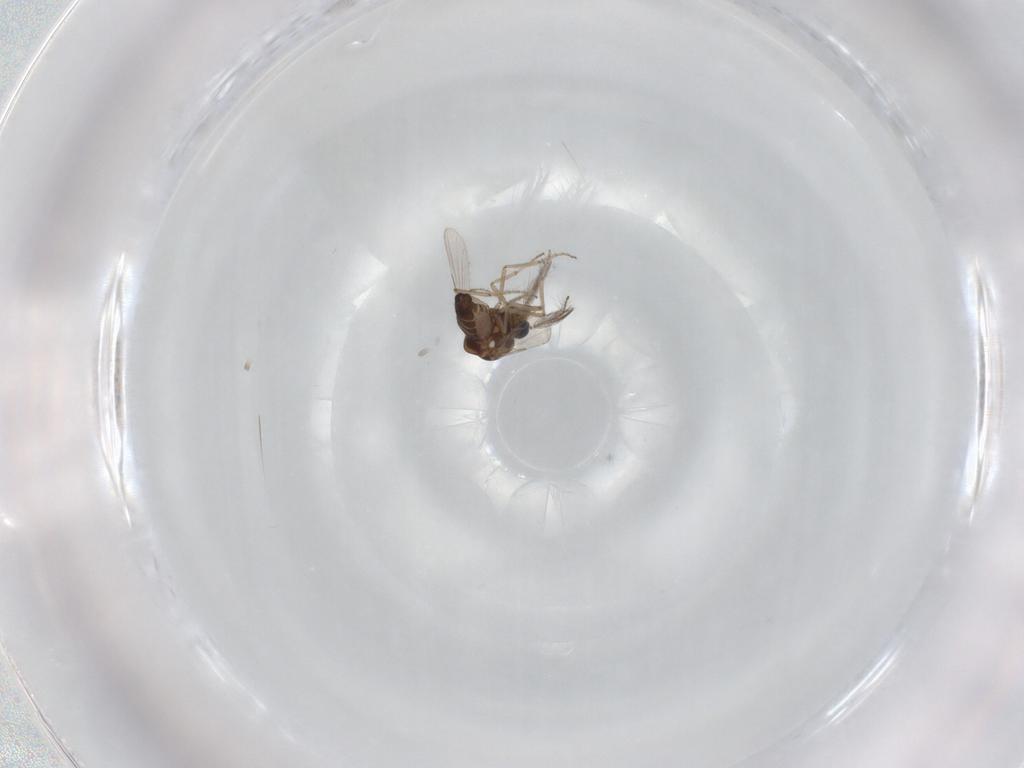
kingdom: Animalia
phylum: Arthropoda
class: Insecta
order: Diptera
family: Ceratopogonidae
